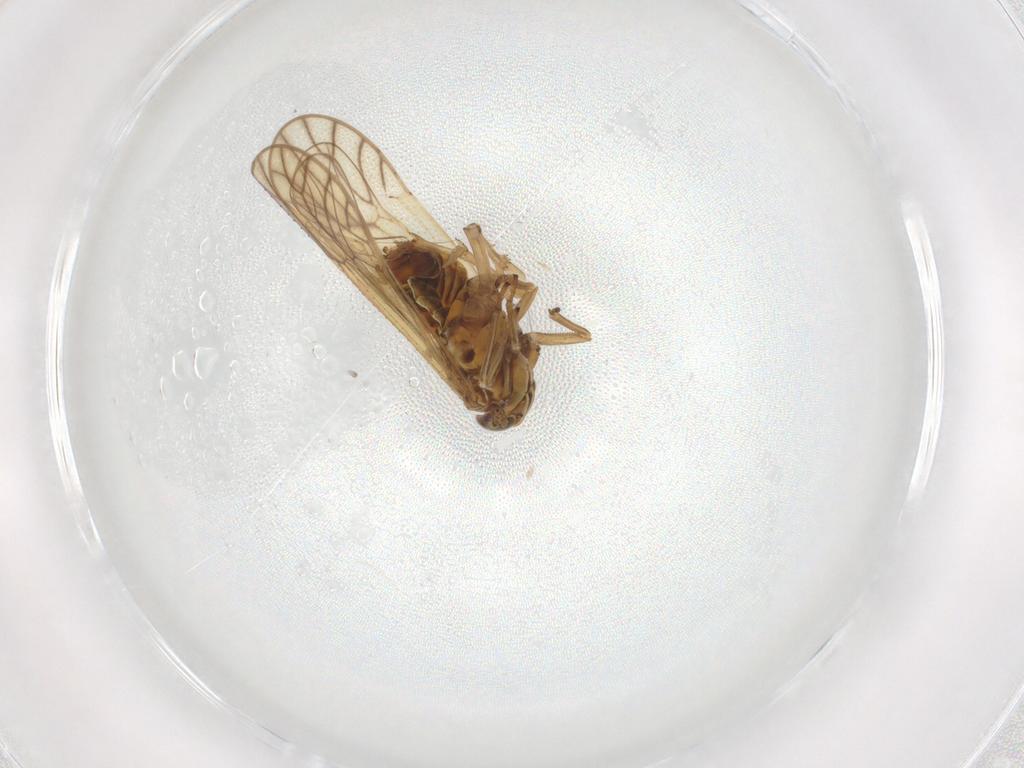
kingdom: Animalia
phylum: Arthropoda
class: Insecta
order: Hemiptera
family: Delphacidae
